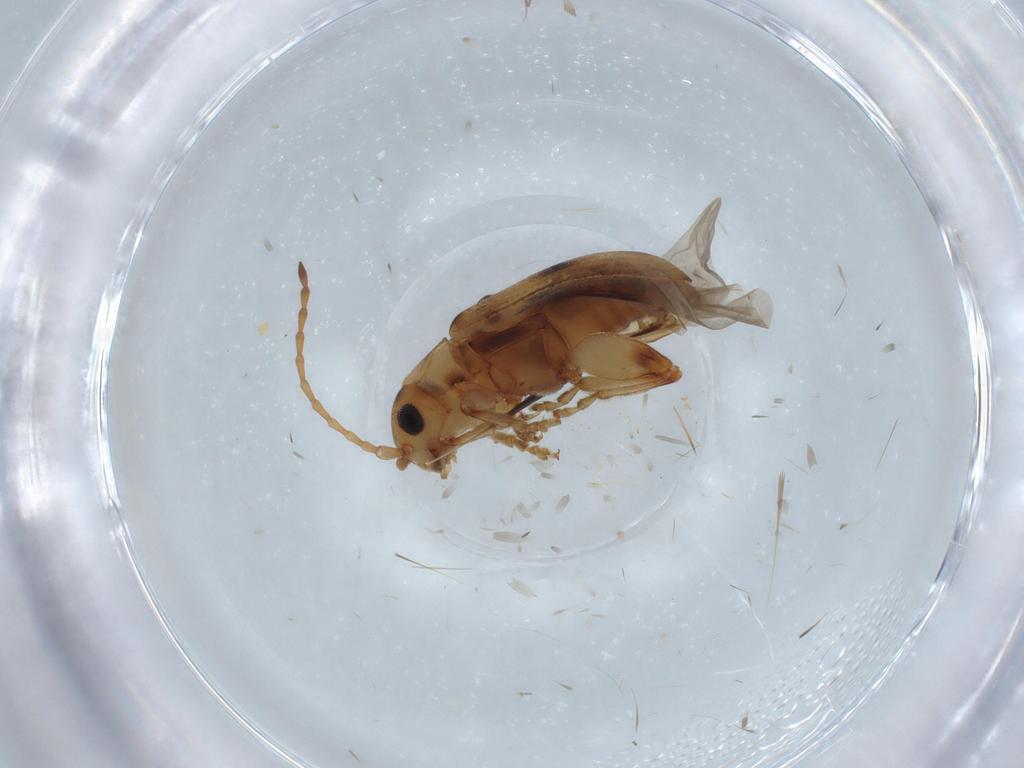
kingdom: Animalia
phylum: Arthropoda
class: Insecta
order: Coleoptera
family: Chrysomelidae
